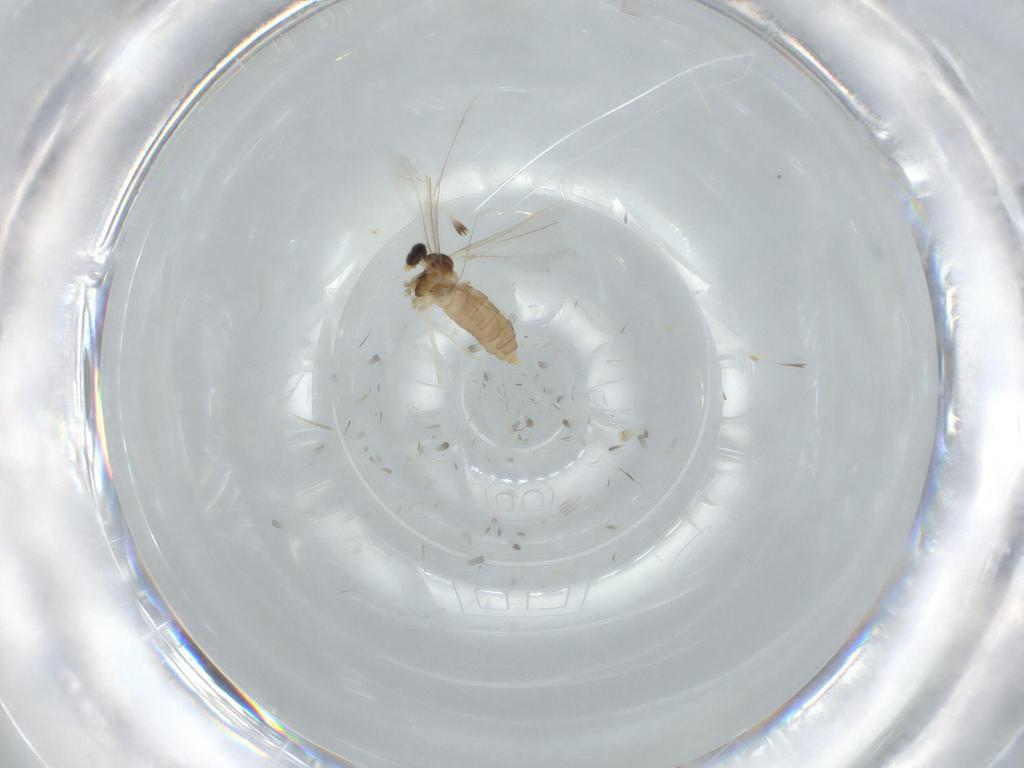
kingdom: Animalia
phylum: Arthropoda
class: Insecta
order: Diptera
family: Cecidomyiidae
